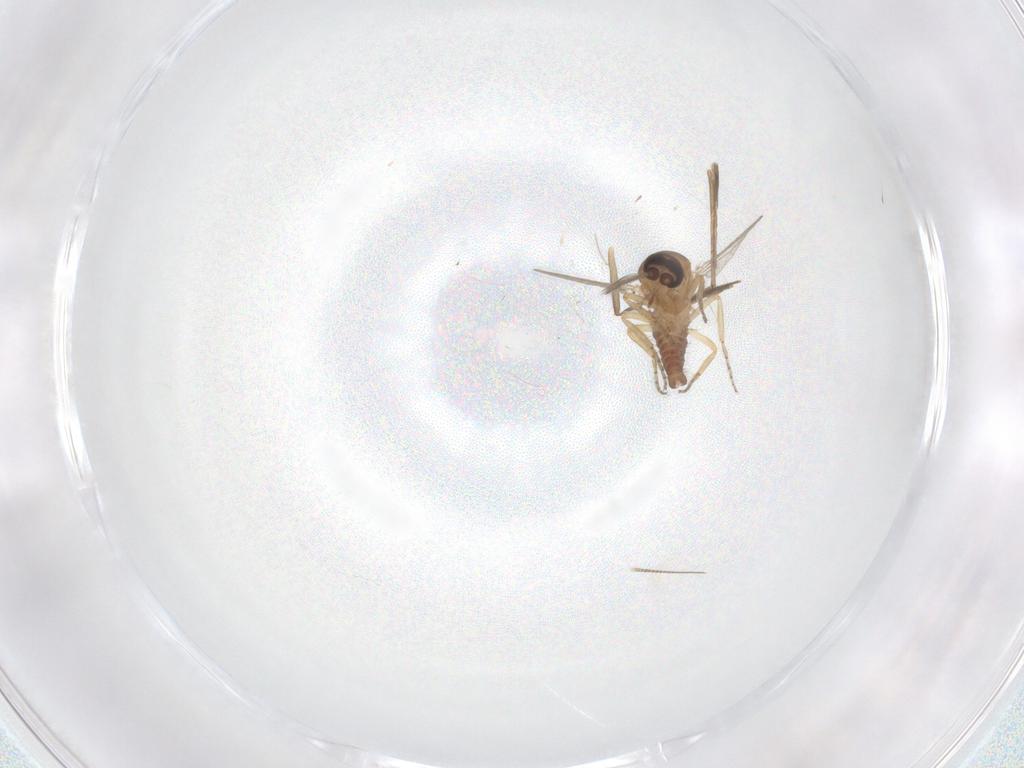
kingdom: Animalia
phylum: Arthropoda
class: Insecta
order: Diptera
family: Ceratopogonidae
